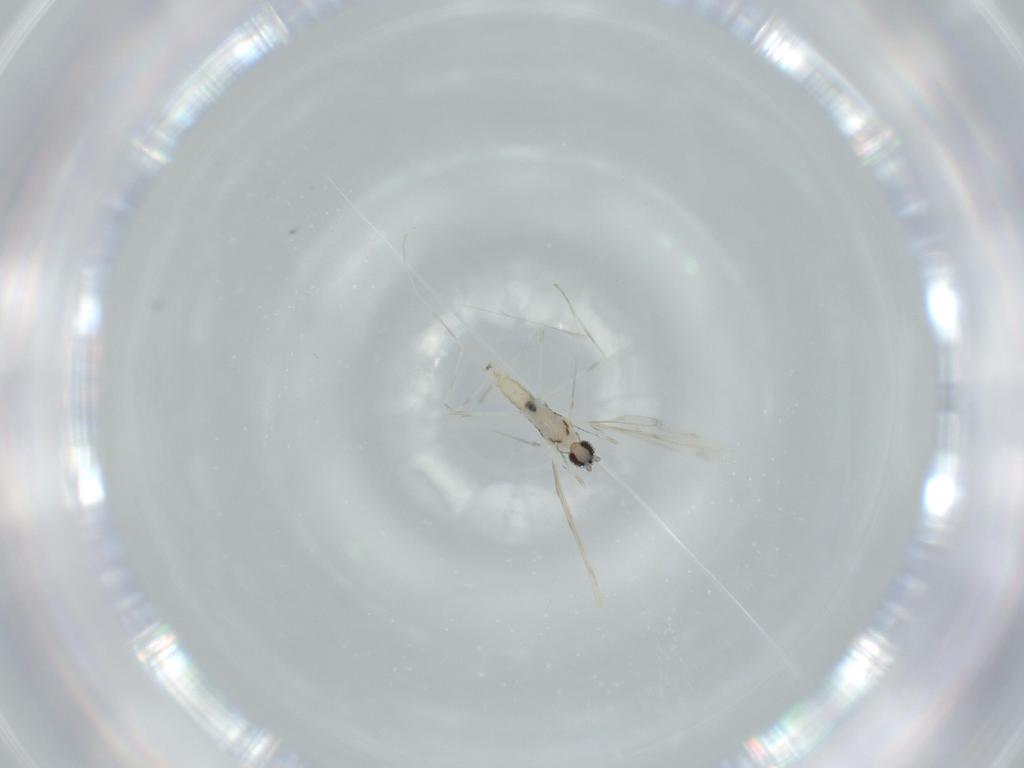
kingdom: Animalia
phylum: Arthropoda
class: Insecta
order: Diptera
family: Cecidomyiidae
